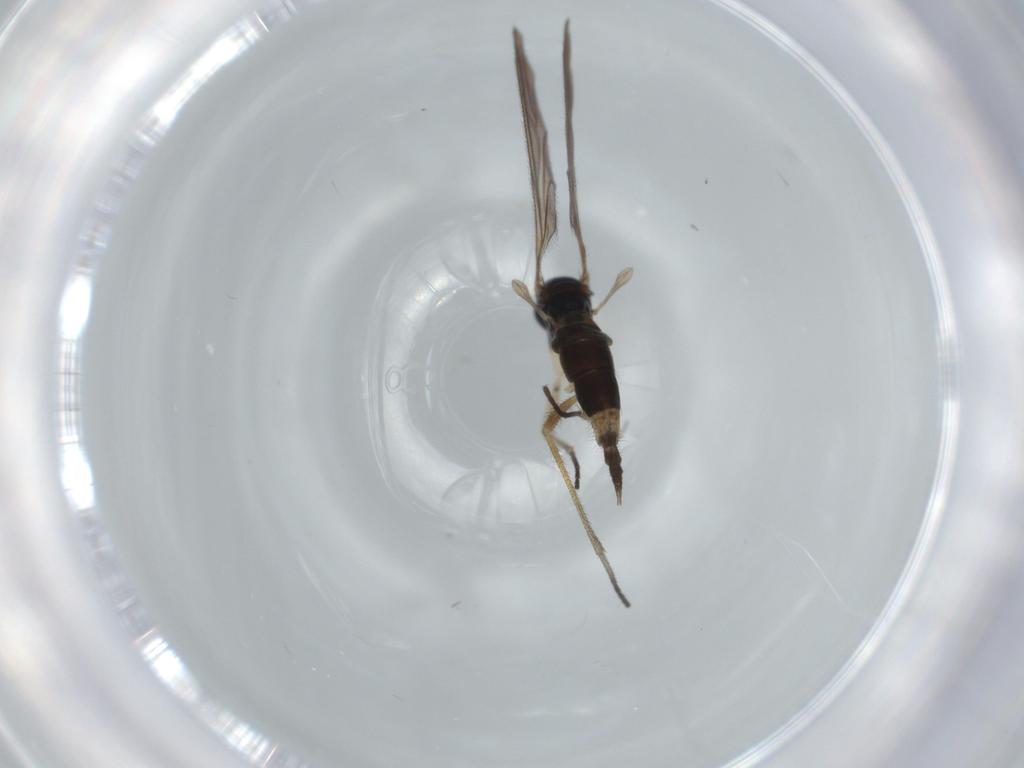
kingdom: Animalia
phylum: Arthropoda
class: Insecta
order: Diptera
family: Sciaridae
